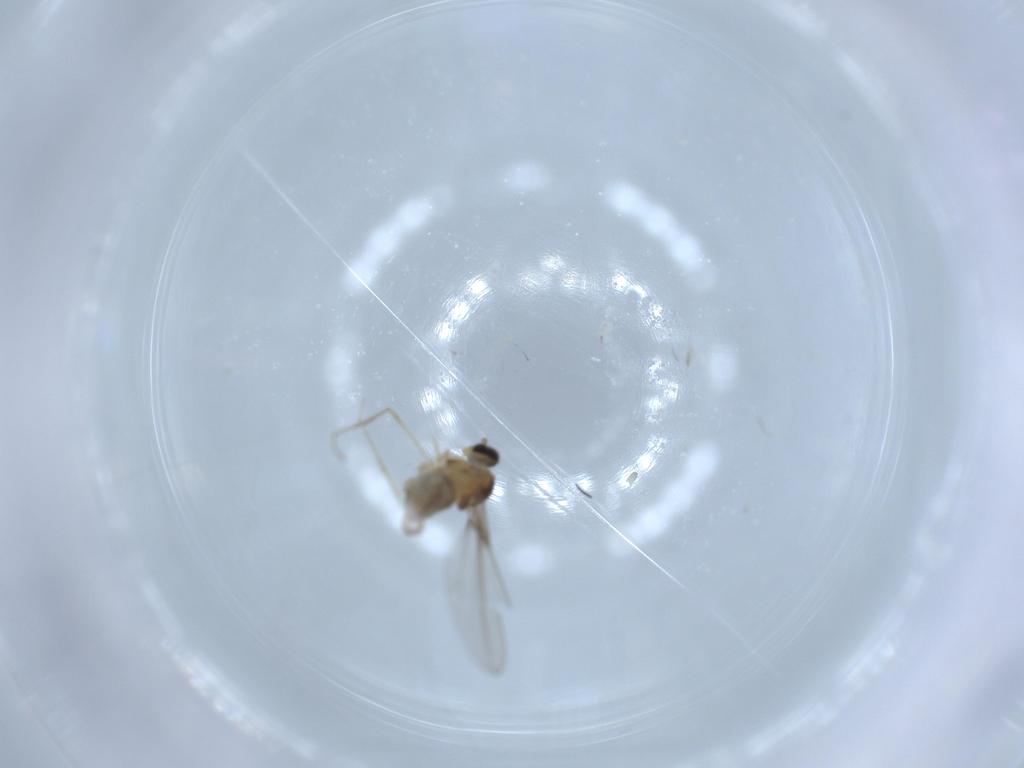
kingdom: Animalia
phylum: Arthropoda
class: Insecta
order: Diptera
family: Cecidomyiidae
